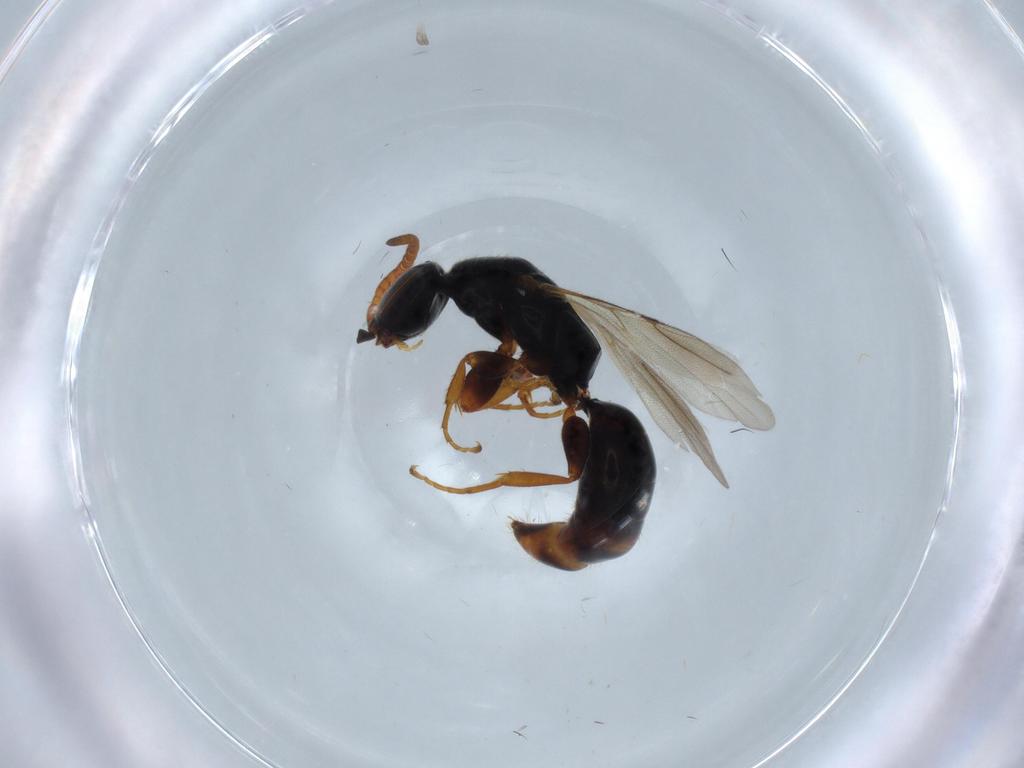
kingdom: Animalia
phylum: Arthropoda
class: Insecta
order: Hymenoptera
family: Bethylidae
